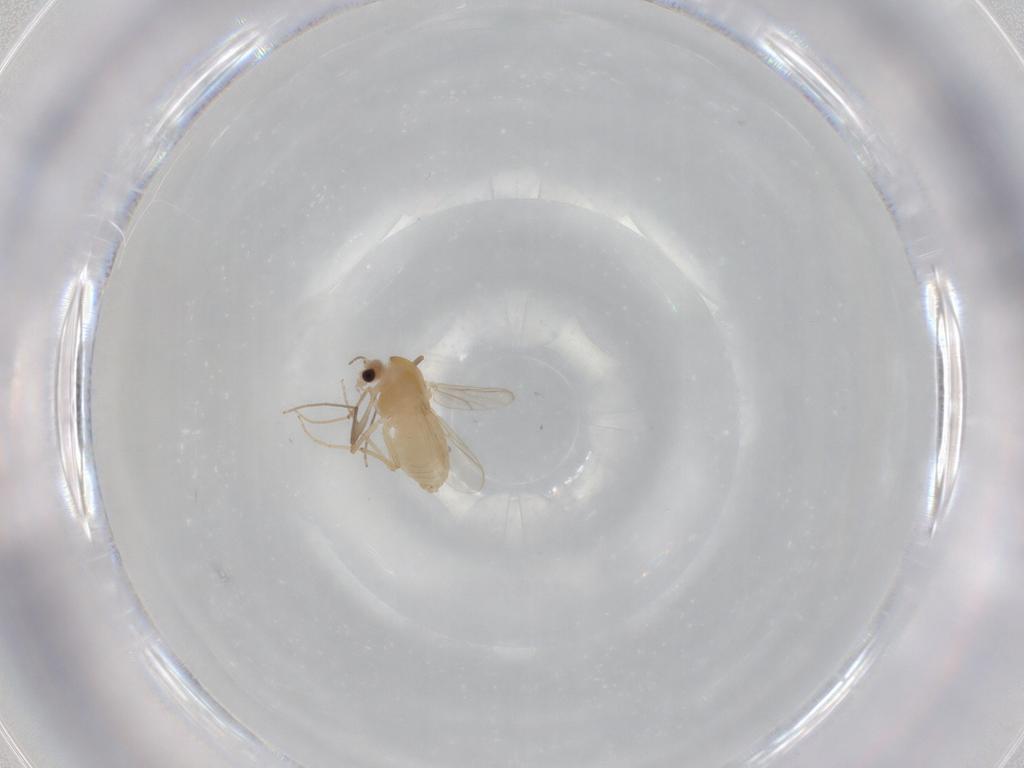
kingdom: Animalia
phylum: Arthropoda
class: Insecta
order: Diptera
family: Chironomidae
